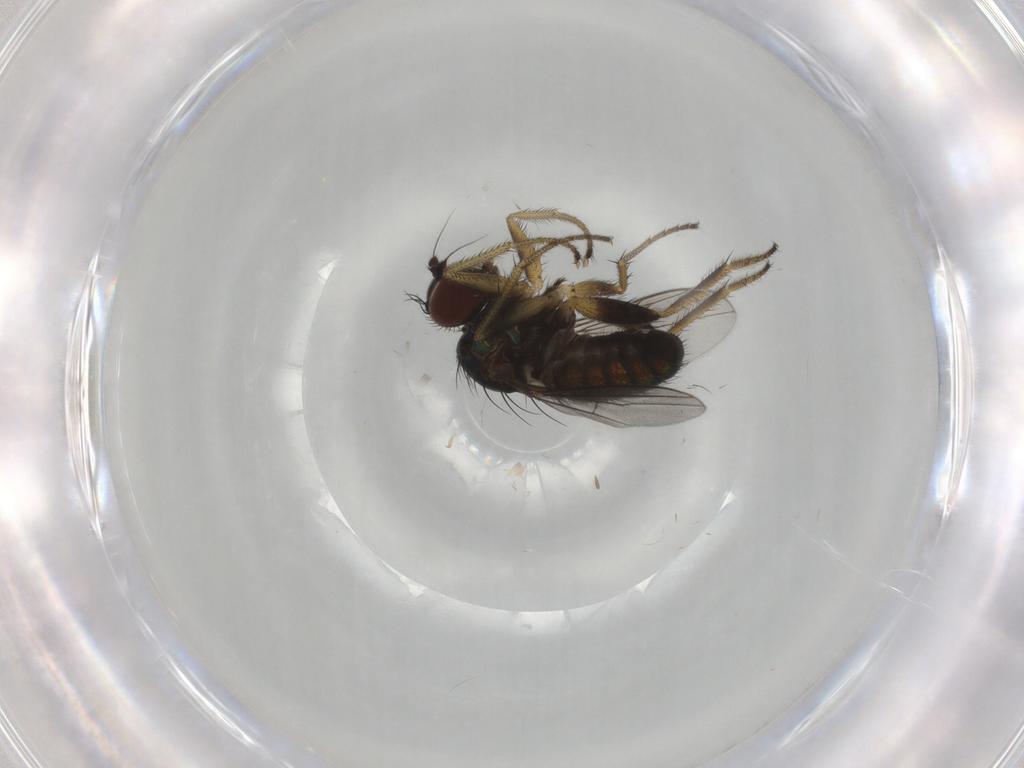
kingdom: Animalia
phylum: Arthropoda
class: Insecta
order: Diptera
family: Dolichopodidae
